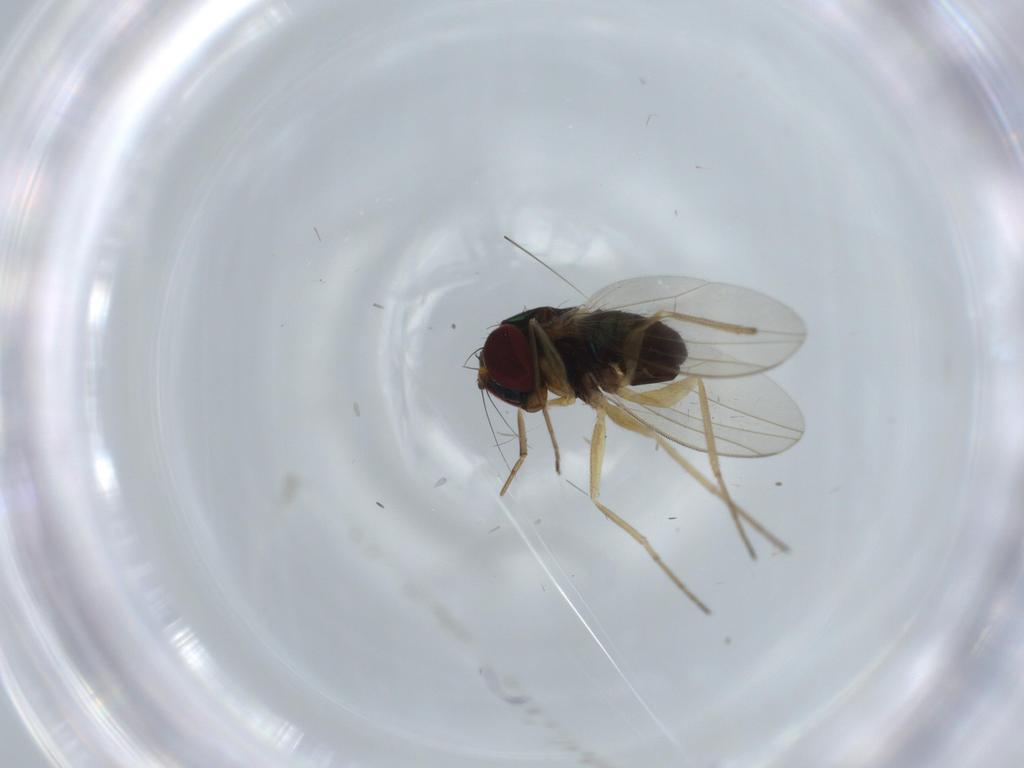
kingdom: Animalia
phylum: Arthropoda
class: Insecta
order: Diptera
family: Dolichopodidae
